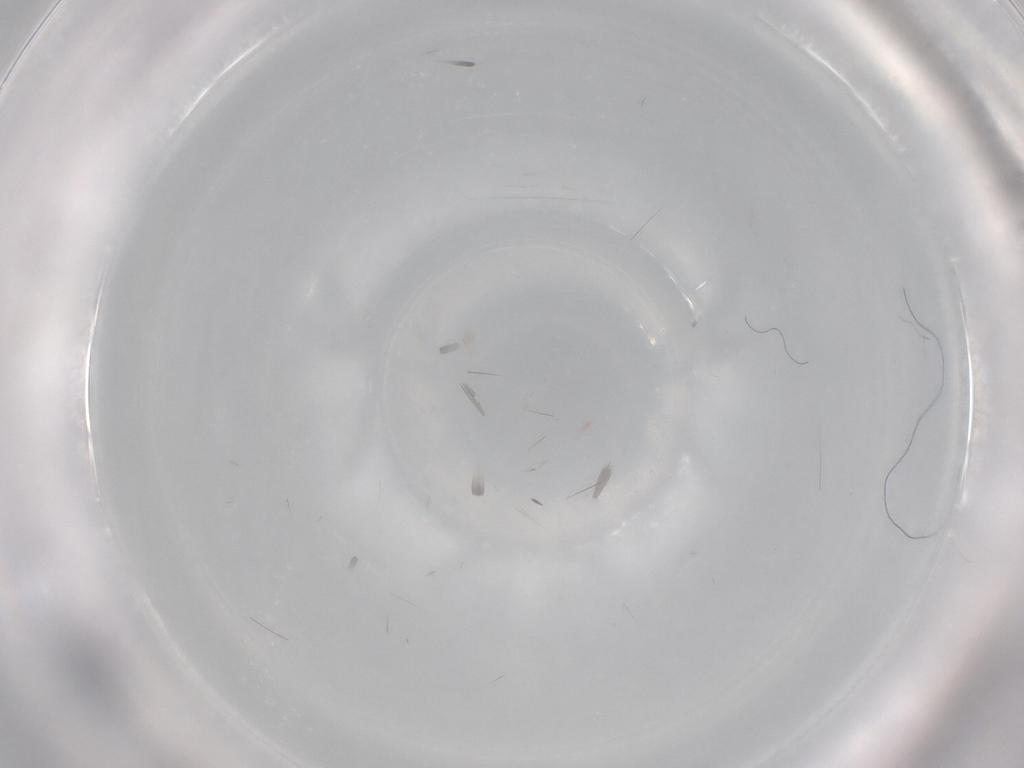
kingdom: Animalia
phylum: Arthropoda
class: Insecta
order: Diptera
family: Cecidomyiidae
